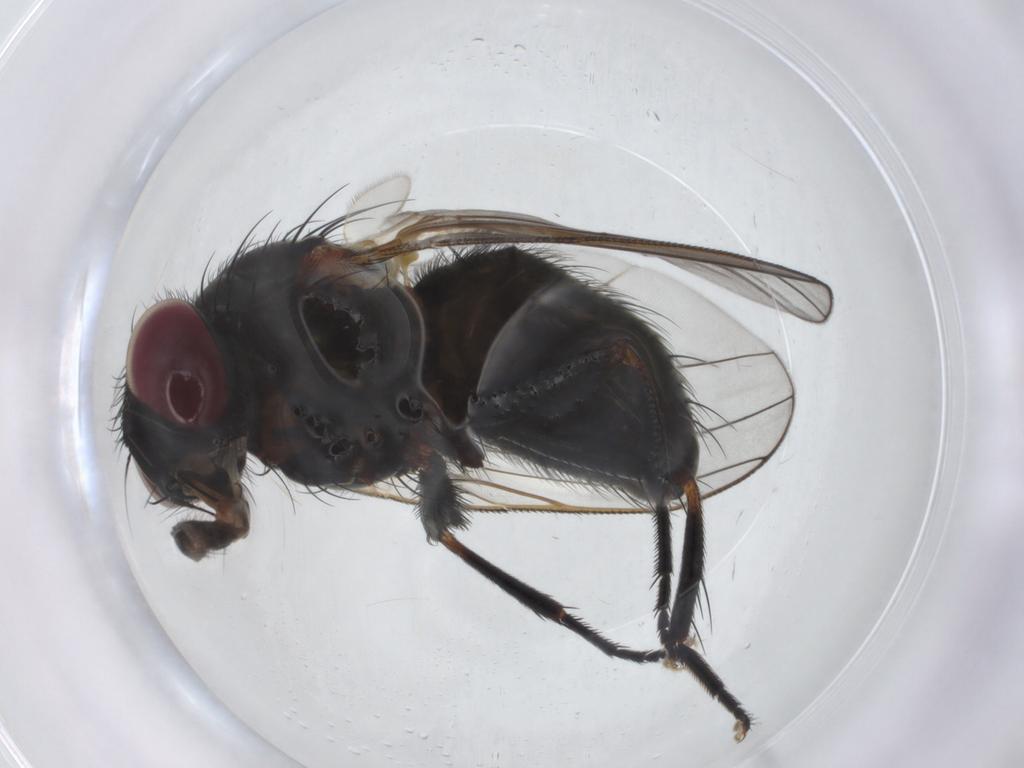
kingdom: Animalia
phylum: Arthropoda
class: Insecta
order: Diptera
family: Fannia
